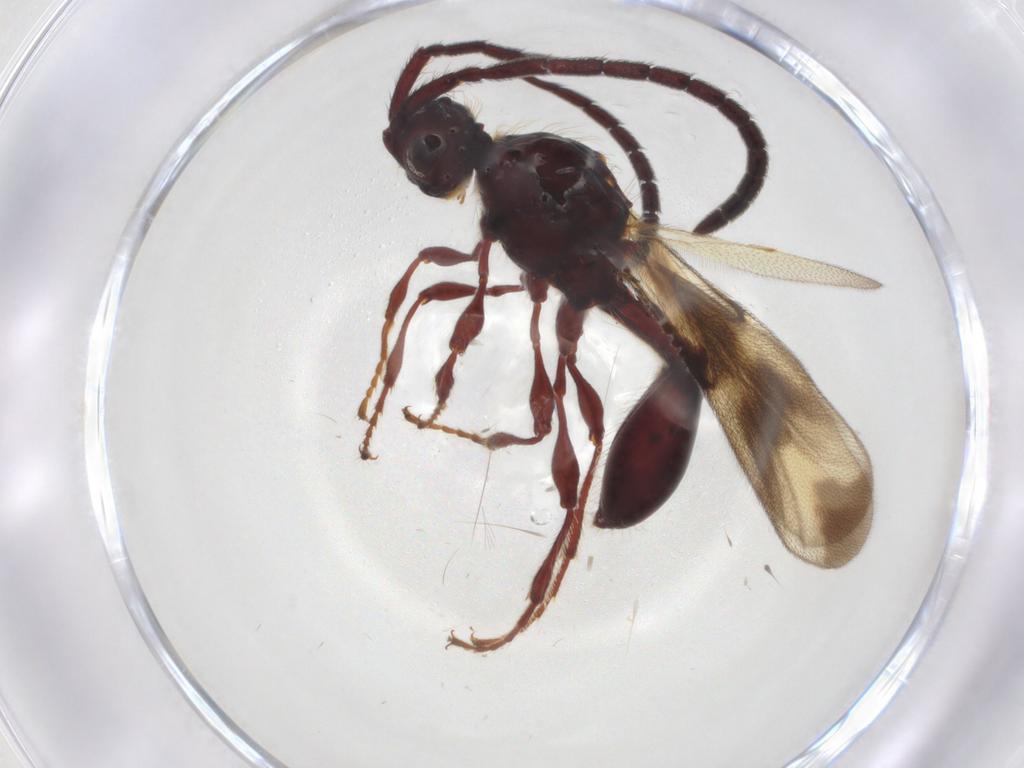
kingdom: Animalia
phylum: Arthropoda
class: Insecta
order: Hymenoptera
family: Diapriidae
